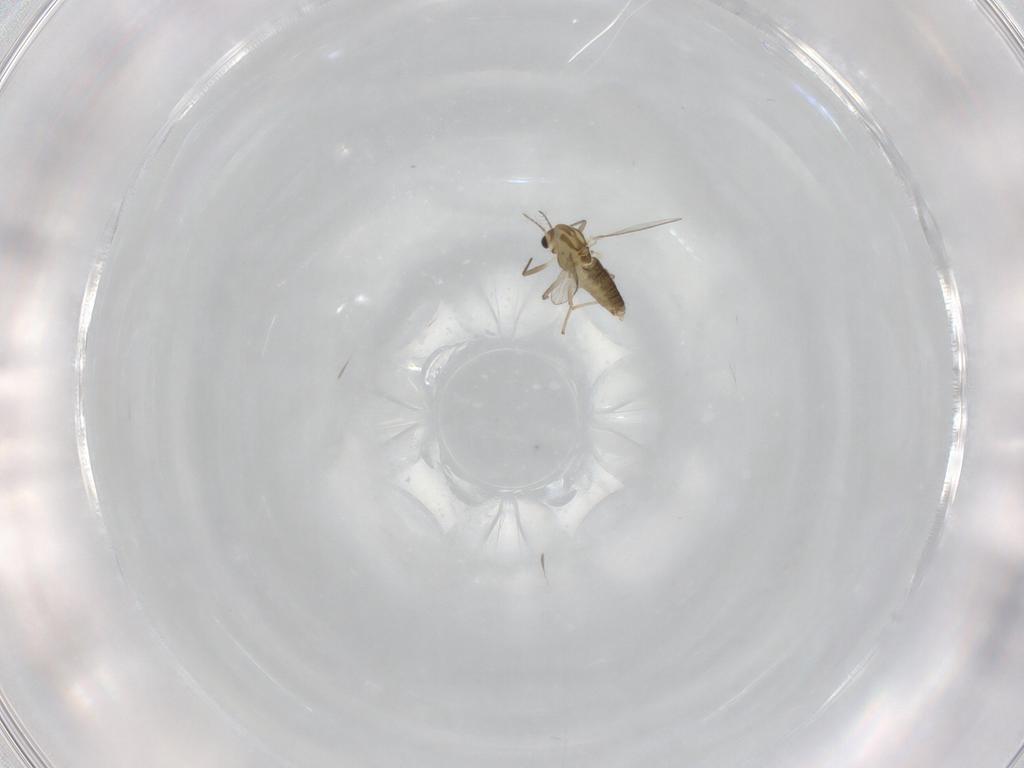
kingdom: Animalia
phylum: Arthropoda
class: Insecta
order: Diptera
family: Chironomidae
